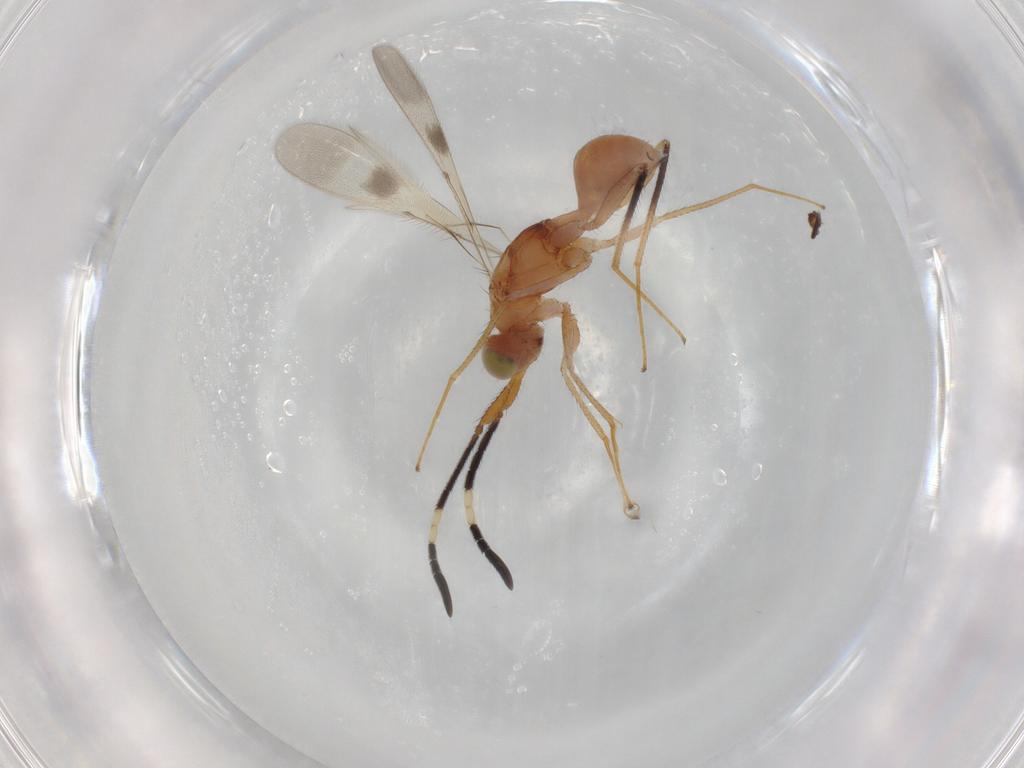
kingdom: Animalia
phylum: Arthropoda
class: Insecta
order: Hymenoptera
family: Mymaridae
